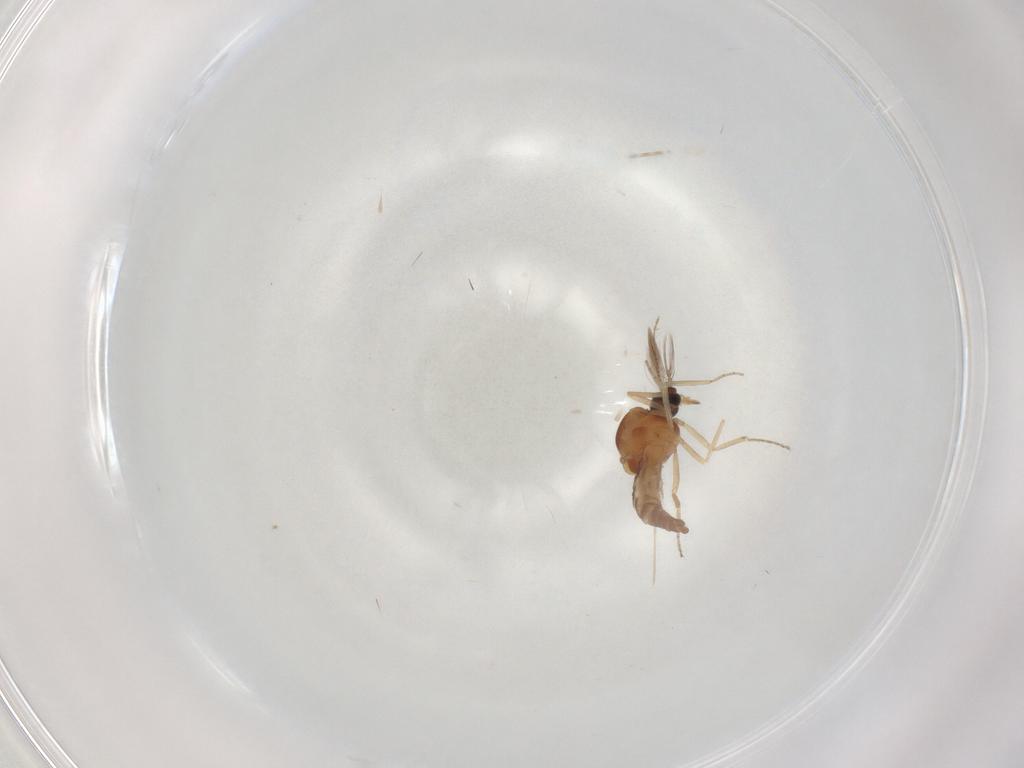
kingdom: Animalia
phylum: Arthropoda
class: Insecta
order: Diptera
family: Ceratopogonidae
